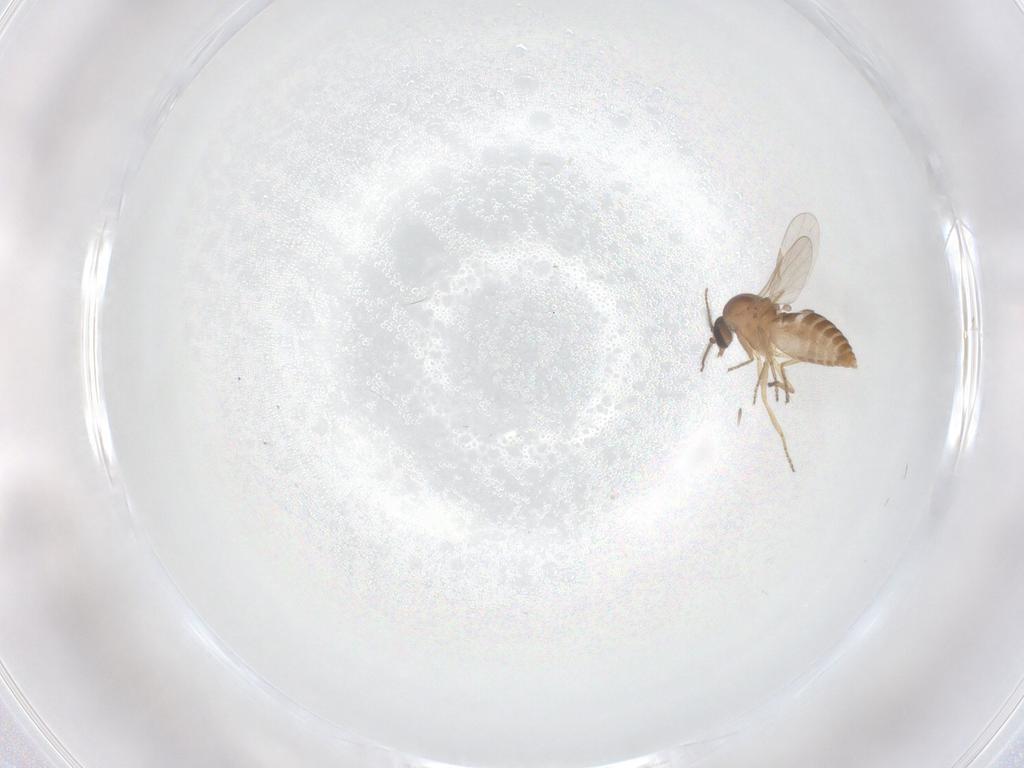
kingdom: Animalia
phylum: Arthropoda
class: Insecta
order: Diptera
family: Ceratopogonidae
